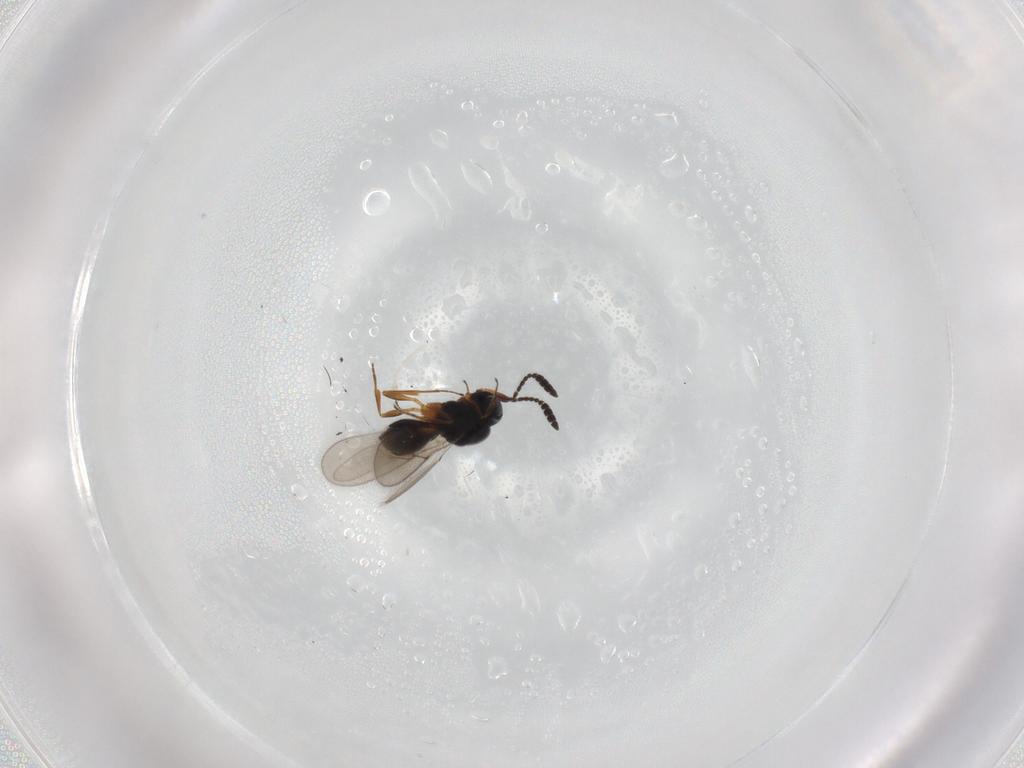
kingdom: Animalia
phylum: Arthropoda
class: Insecta
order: Hymenoptera
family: Scelionidae
